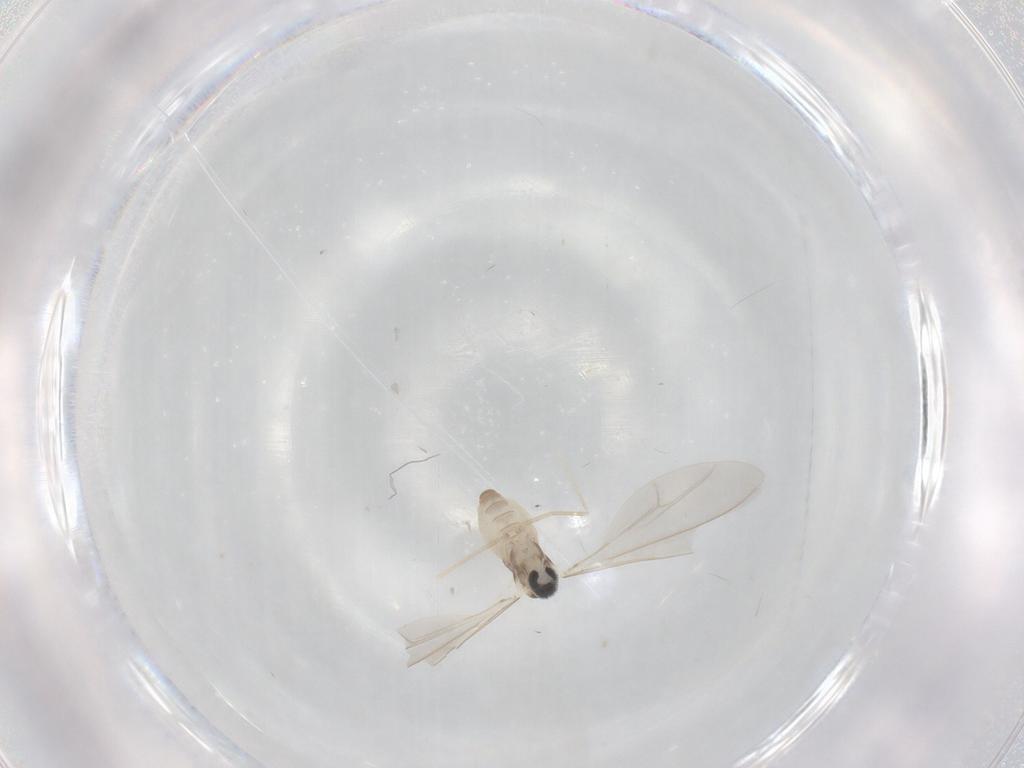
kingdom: Animalia
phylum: Arthropoda
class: Insecta
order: Diptera
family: Cecidomyiidae
